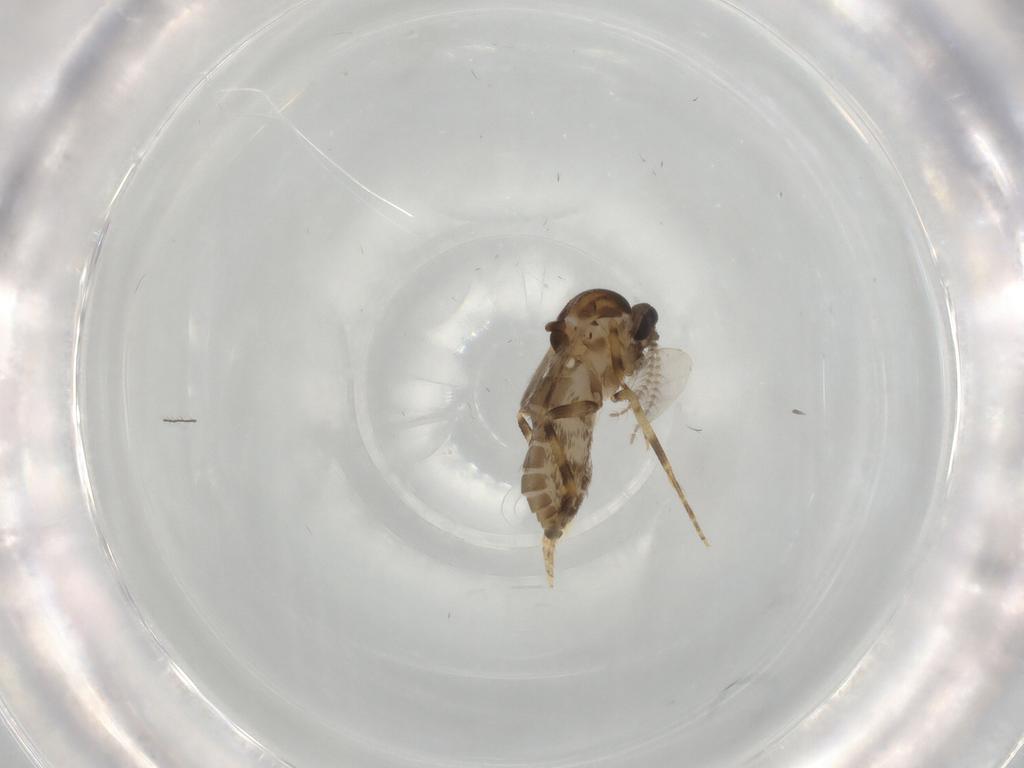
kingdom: Animalia
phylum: Arthropoda
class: Insecta
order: Diptera
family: Ceratopogonidae
